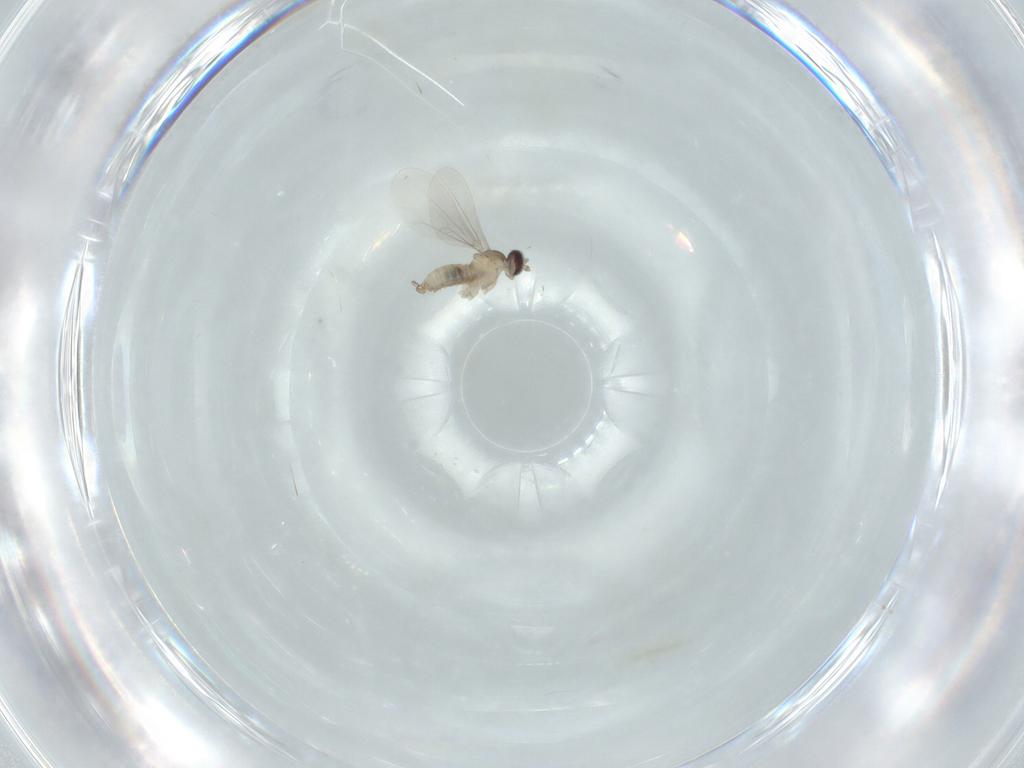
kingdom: Animalia
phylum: Arthropoda
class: Insecta
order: Diptera
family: Cecidomyiidae
